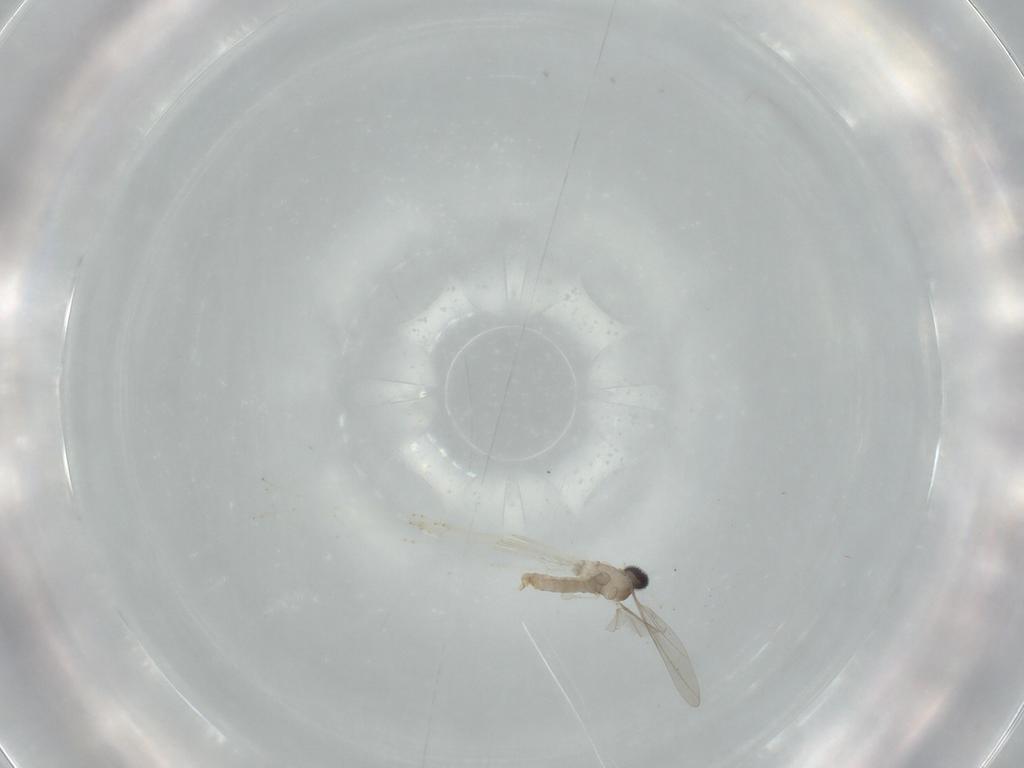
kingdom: Animalia
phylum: Arthropoda
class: Insecta
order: Diptera
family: Cecidomyiidae
